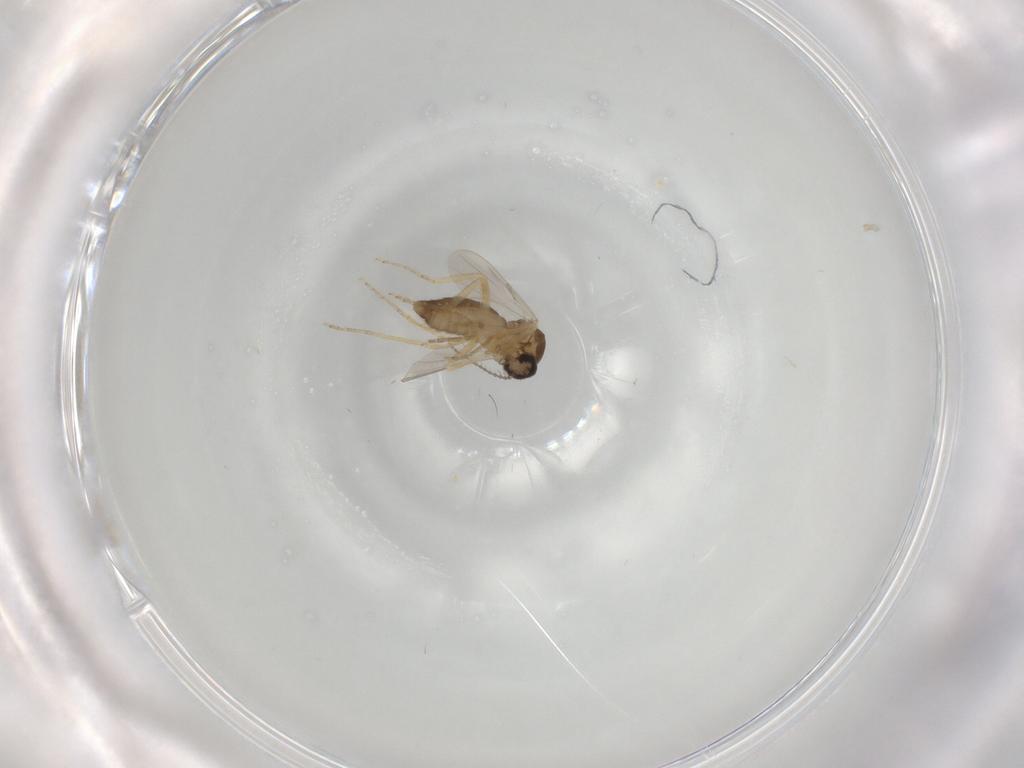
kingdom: Animalia
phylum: Arthropoda
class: Insecta
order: Diptera
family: Ceratopogonidae
